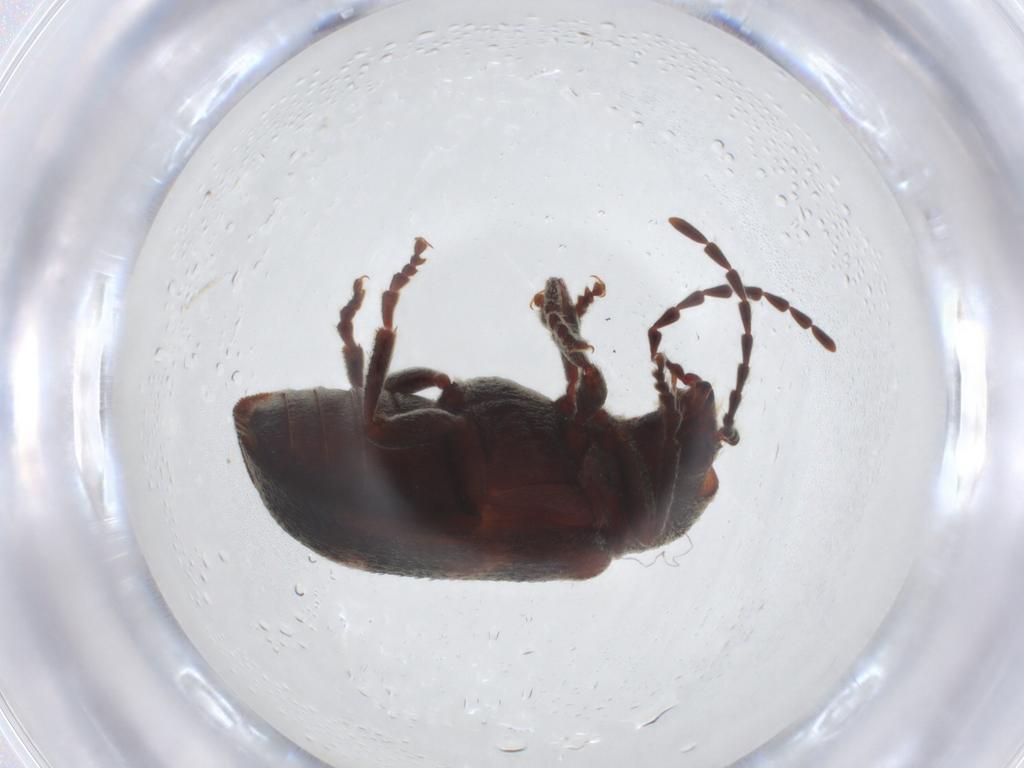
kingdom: Animalia
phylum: Arthropoda
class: Insecta
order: Coleoptera
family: Ptinidae
